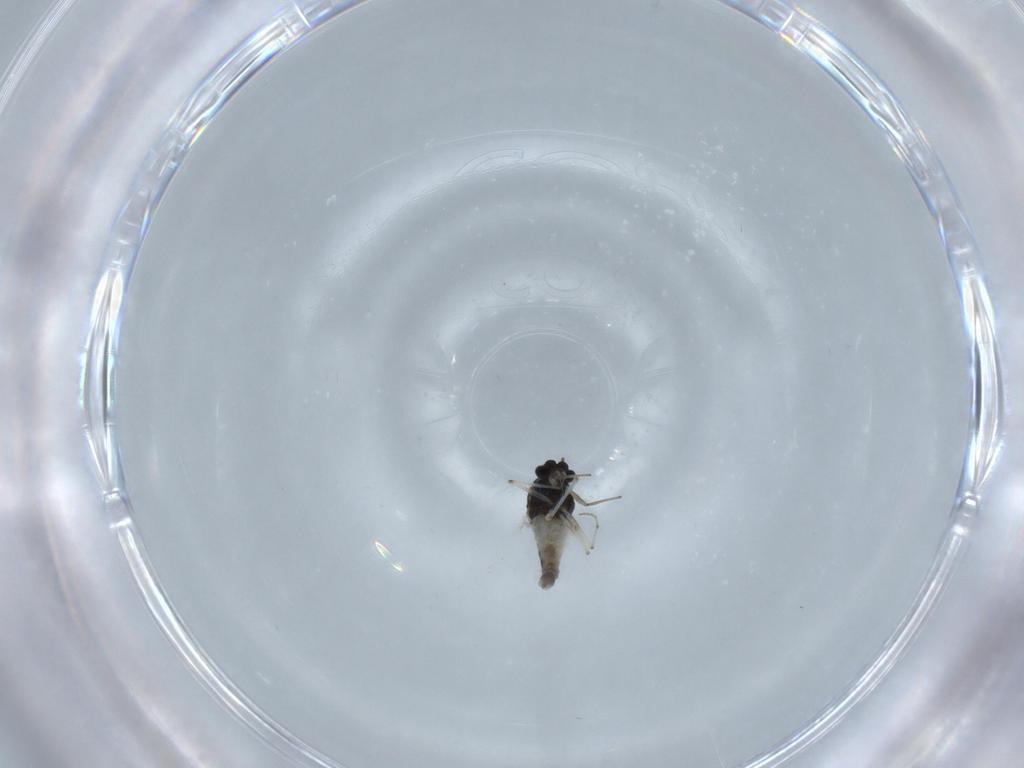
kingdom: Animalia
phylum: Arthropoda
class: Insecta
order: Diptera
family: Chironomidae
